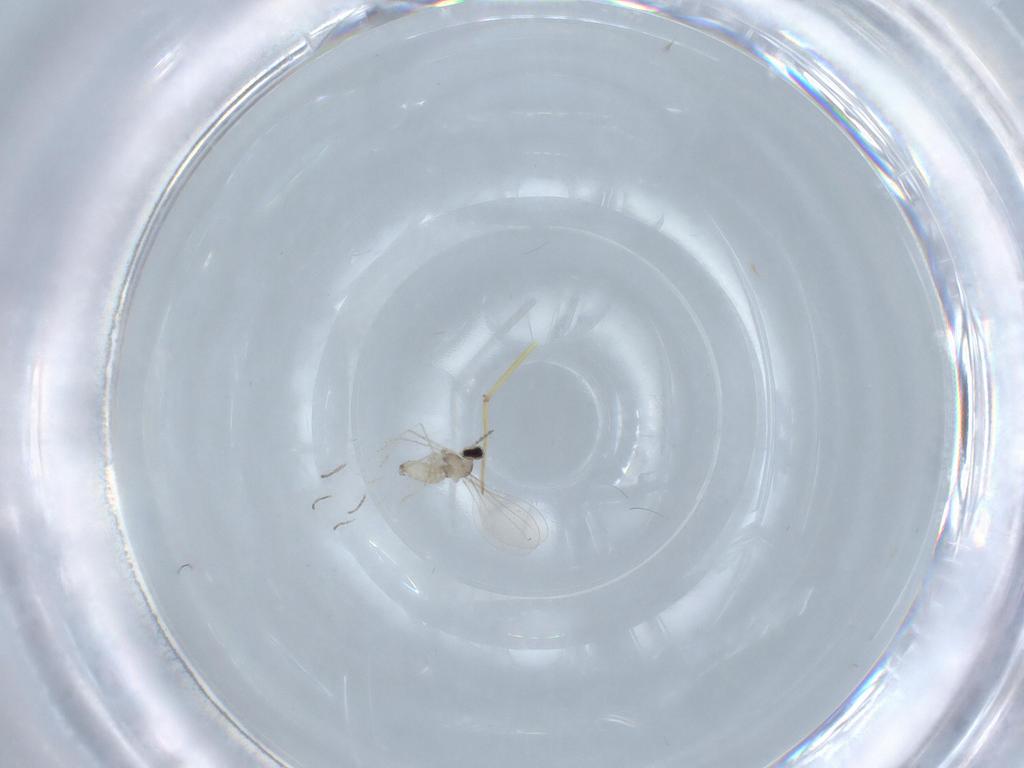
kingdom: Animalia
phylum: Arthropoda
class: Insecta
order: Diptera
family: Cecidomyiidae
